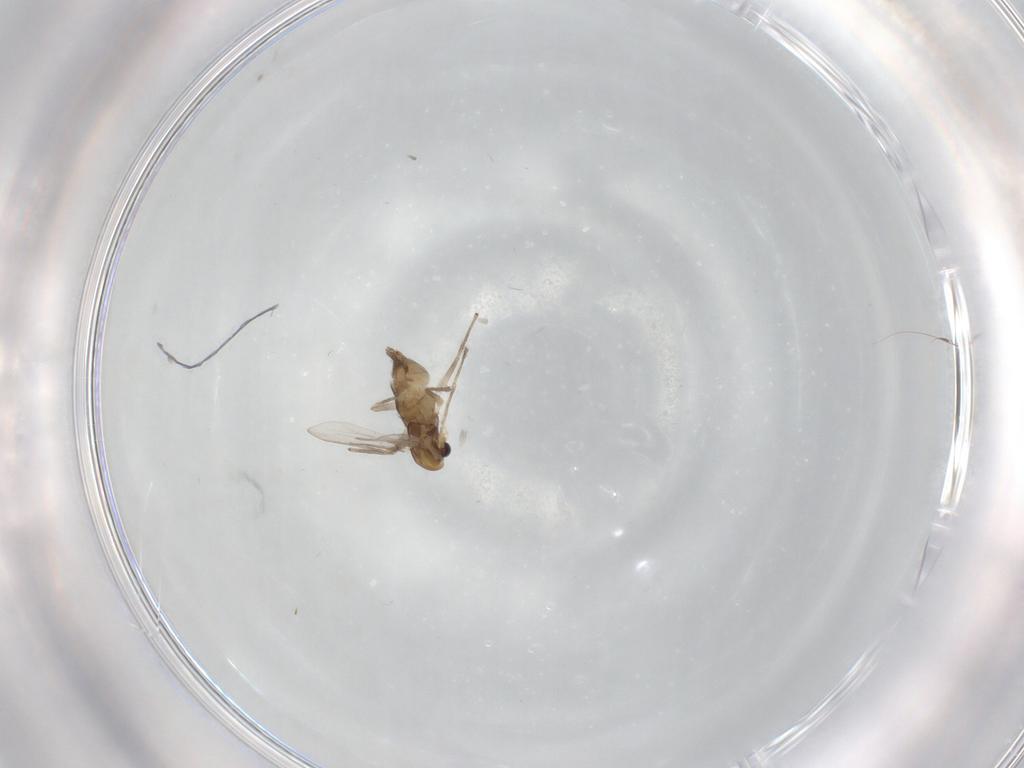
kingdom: Animalia
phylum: Arthropoda
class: Insecta
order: Diptera
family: Chironomidae
